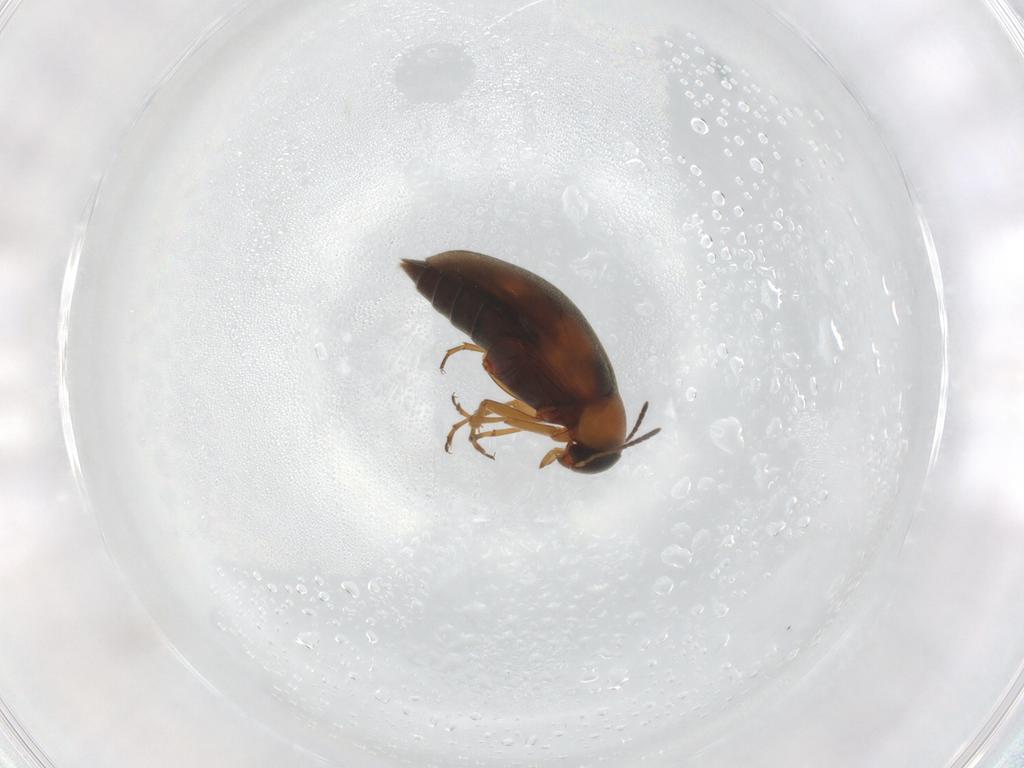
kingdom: Animalia
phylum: Arthropoda
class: Insecta
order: Coleoptera
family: Scraptiidae
